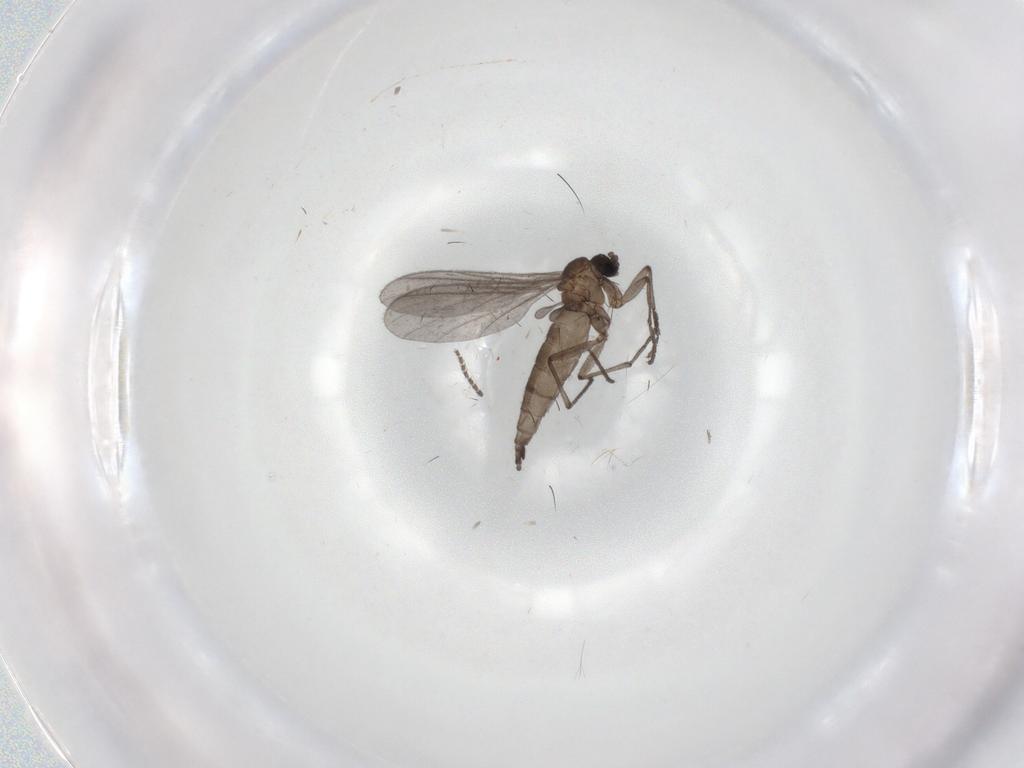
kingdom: Animalia
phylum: Arthropoda
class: Insecta
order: Diptera
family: Sciaridae
